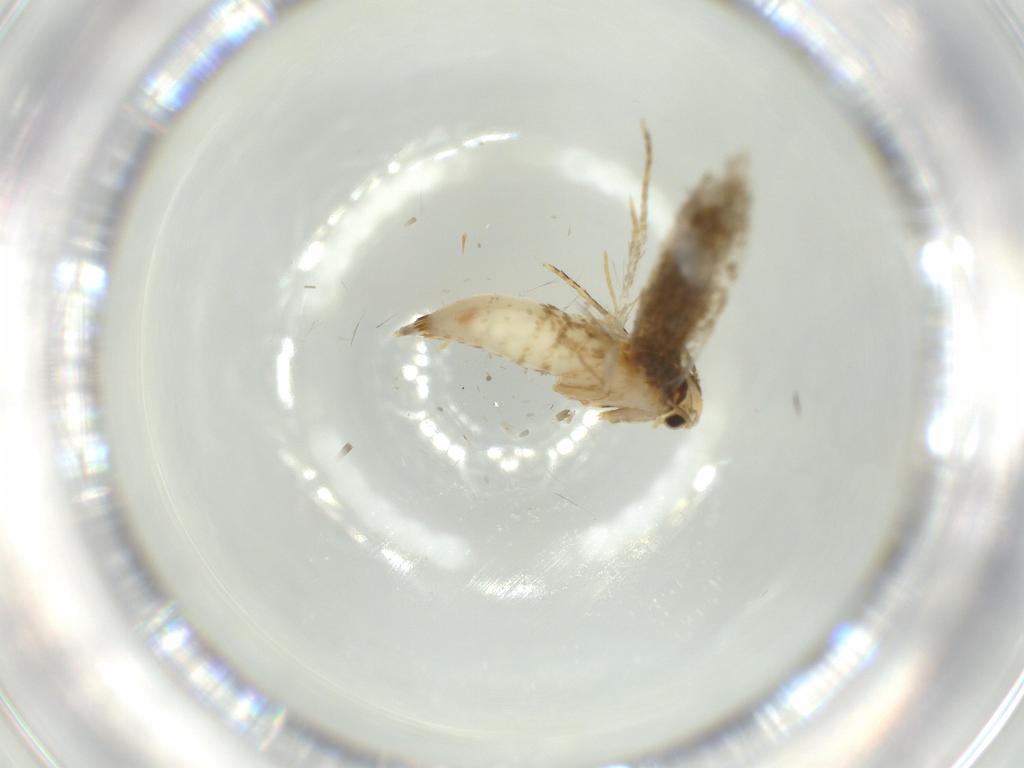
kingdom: Animalia
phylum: Arthropoda
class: Insecta
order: Lepidoptera
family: Tineidae
